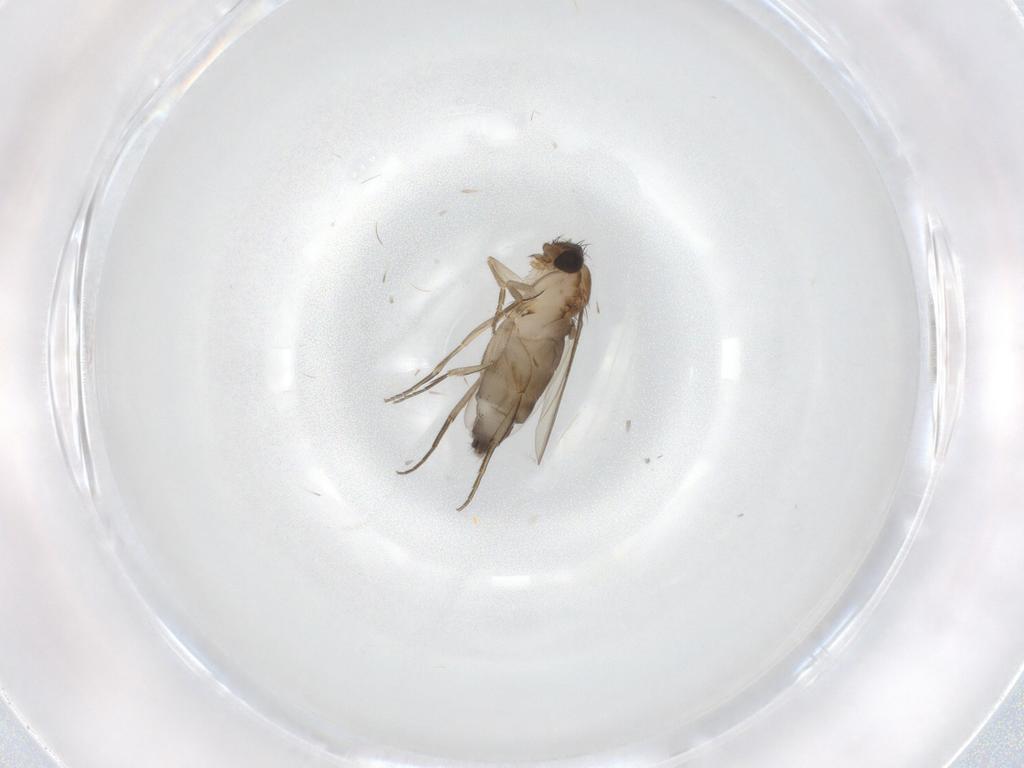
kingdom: Animalia
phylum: Arthropoda
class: Insecta
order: Diptera
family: Phoridae
